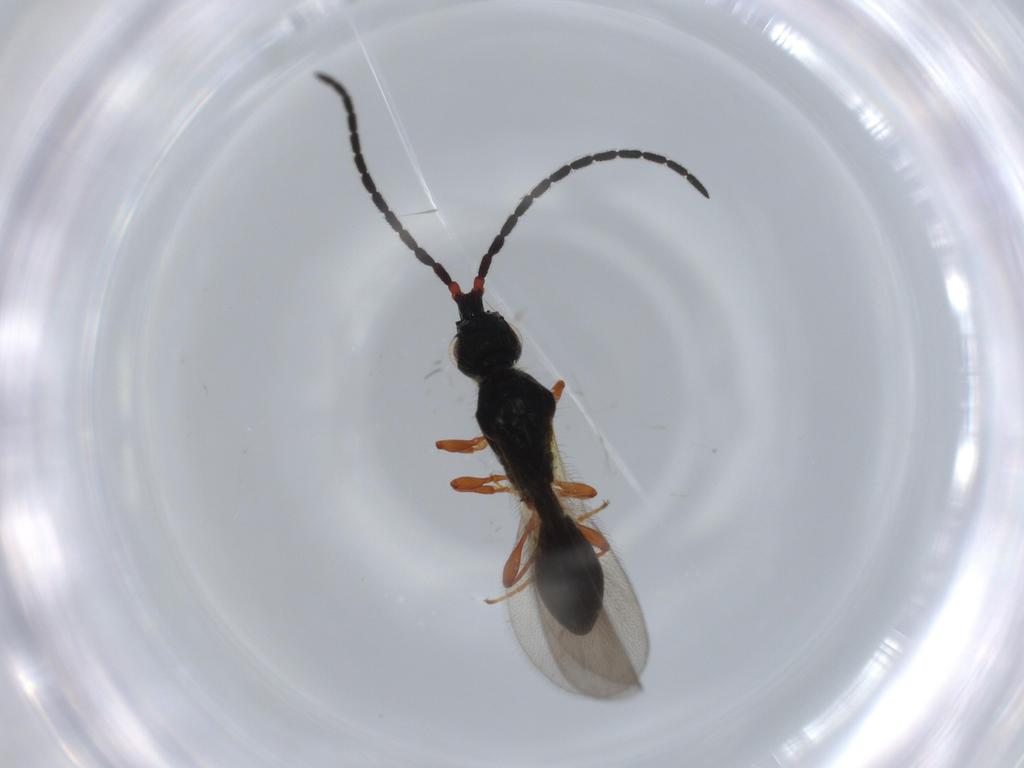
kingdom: Animalia
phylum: Arthropoda
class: Insecta
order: Hymenoptera
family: Diapriidae
